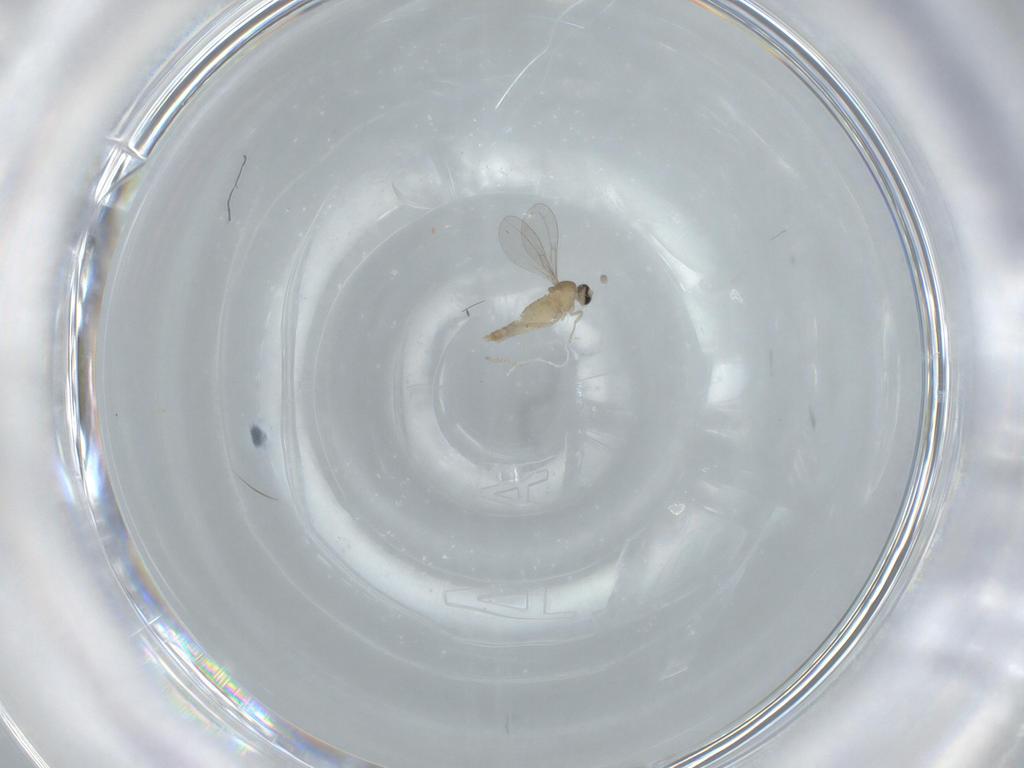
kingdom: Animalia
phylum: Arthropoda
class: Insecta
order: Diptera
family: Cecidomyiidae
